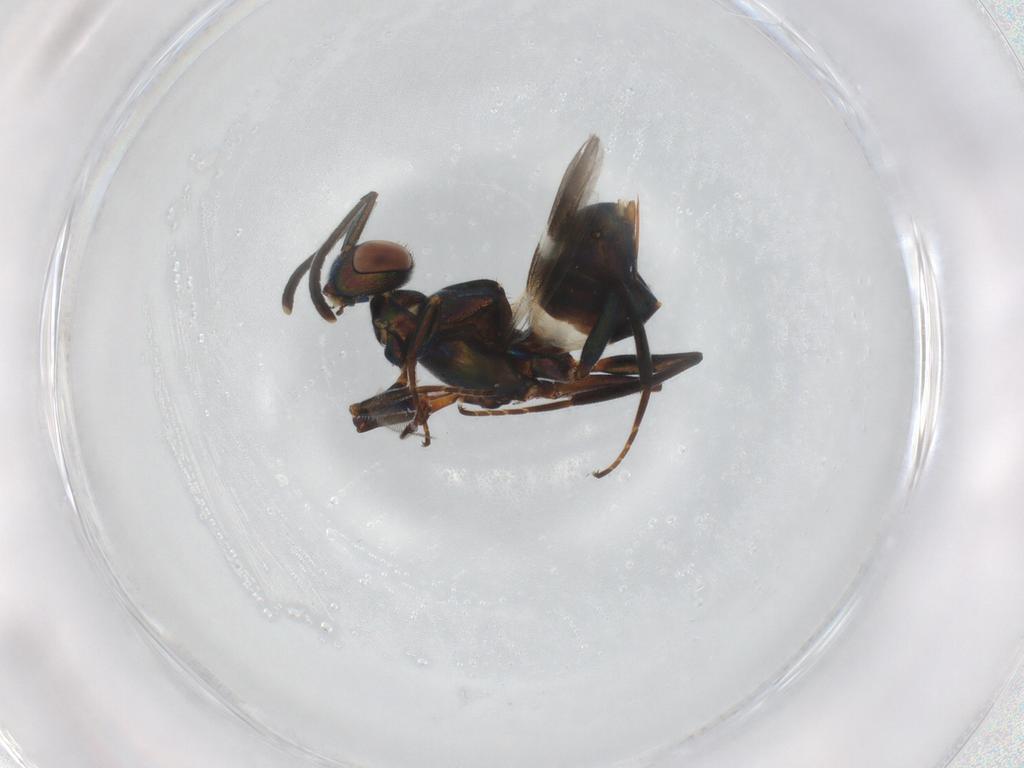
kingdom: Animalia
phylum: Arthropoda
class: Insecta
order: Hymenoptera
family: Eupelmidae
